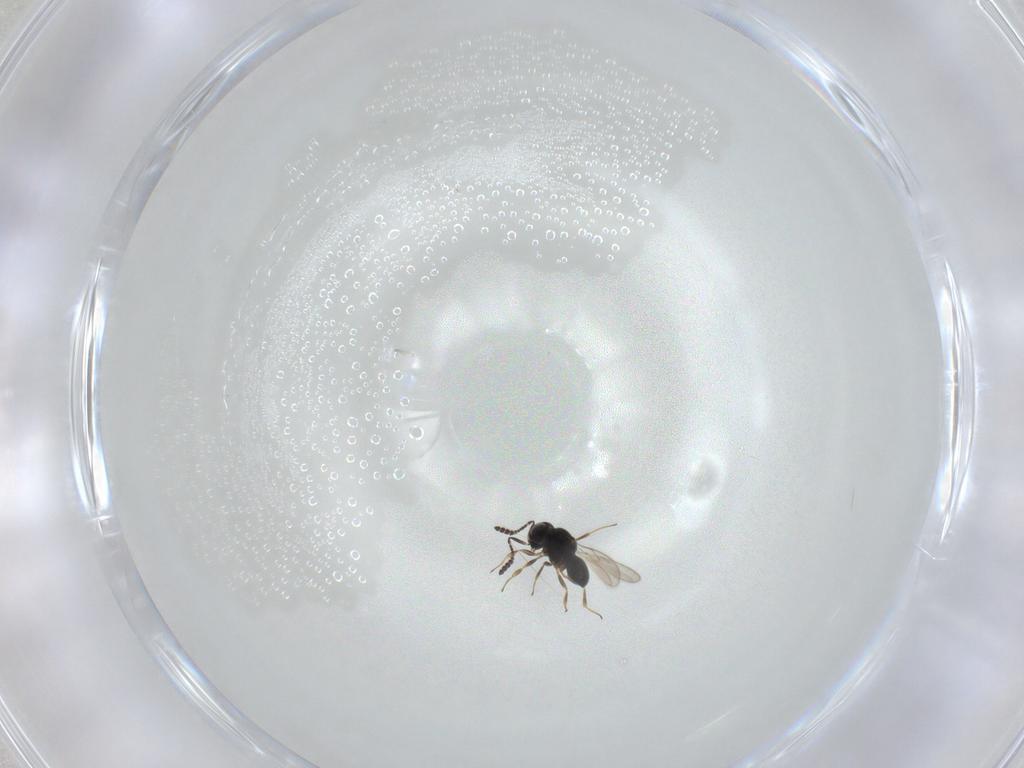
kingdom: Animalia
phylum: Arthropoda
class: Insecta
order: Hymenoptera
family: Scelionidae
